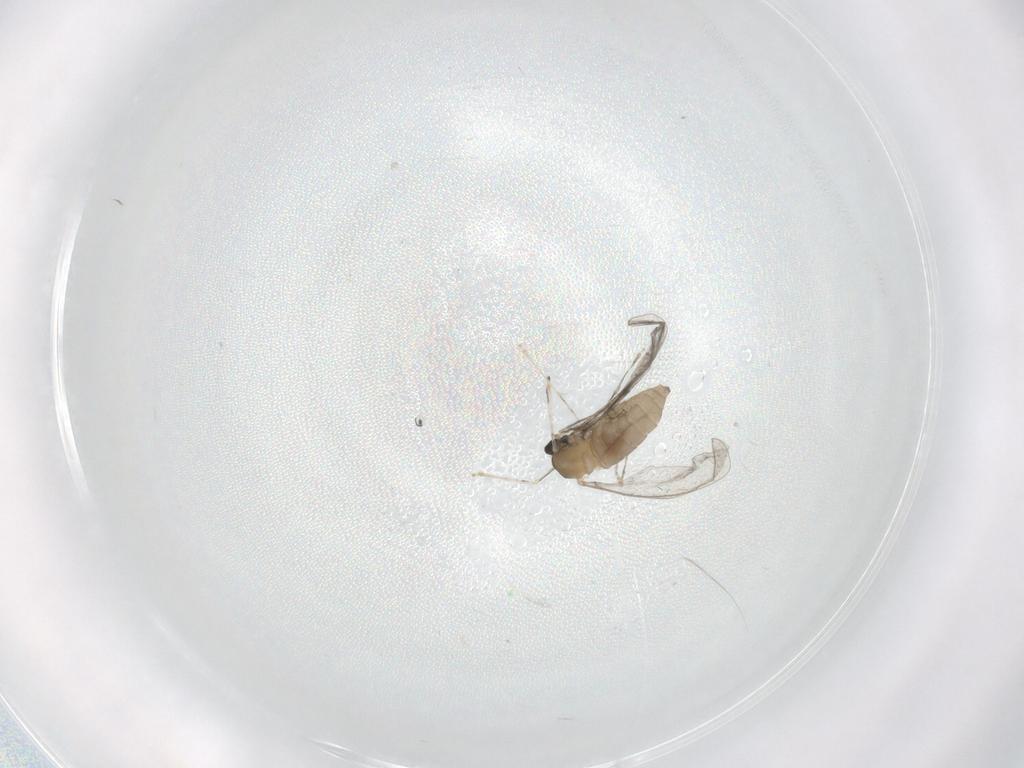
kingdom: Animalia
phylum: Arthropoda
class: Insecta
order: Diptera
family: Cecidomyiidae
